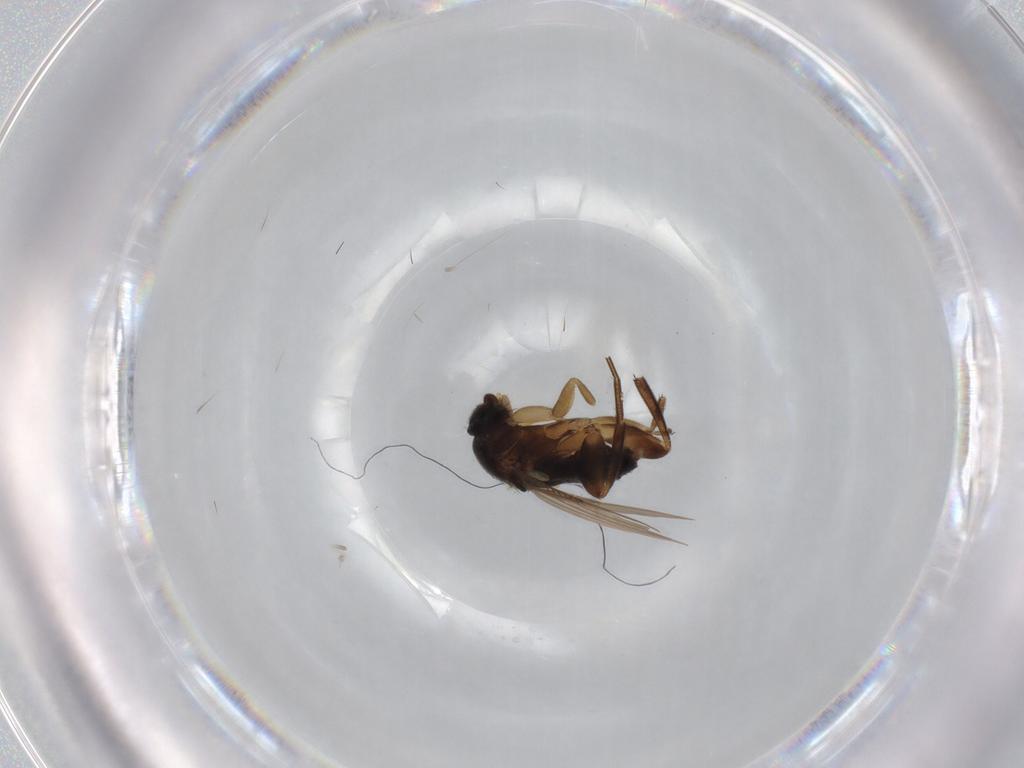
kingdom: Animalia
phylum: Arthropoda
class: Insecta
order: Diptera
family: Phoridae
